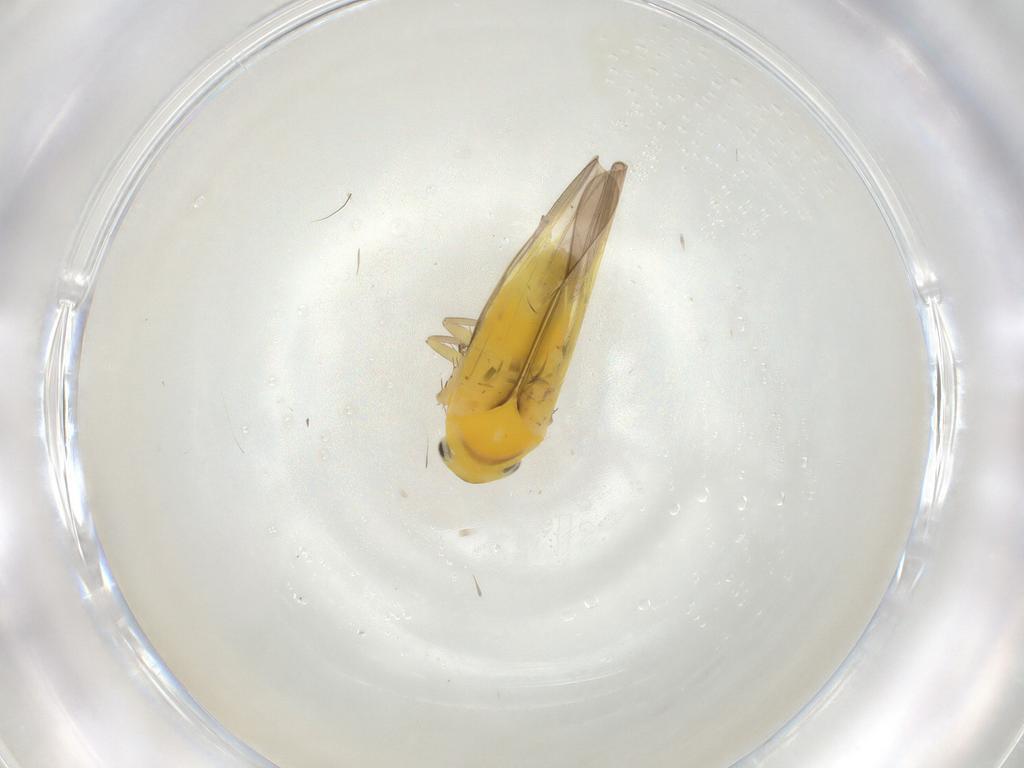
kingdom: Animalia
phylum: Arthropoda
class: Insecta
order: Hemiptera
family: Cicadellidae
